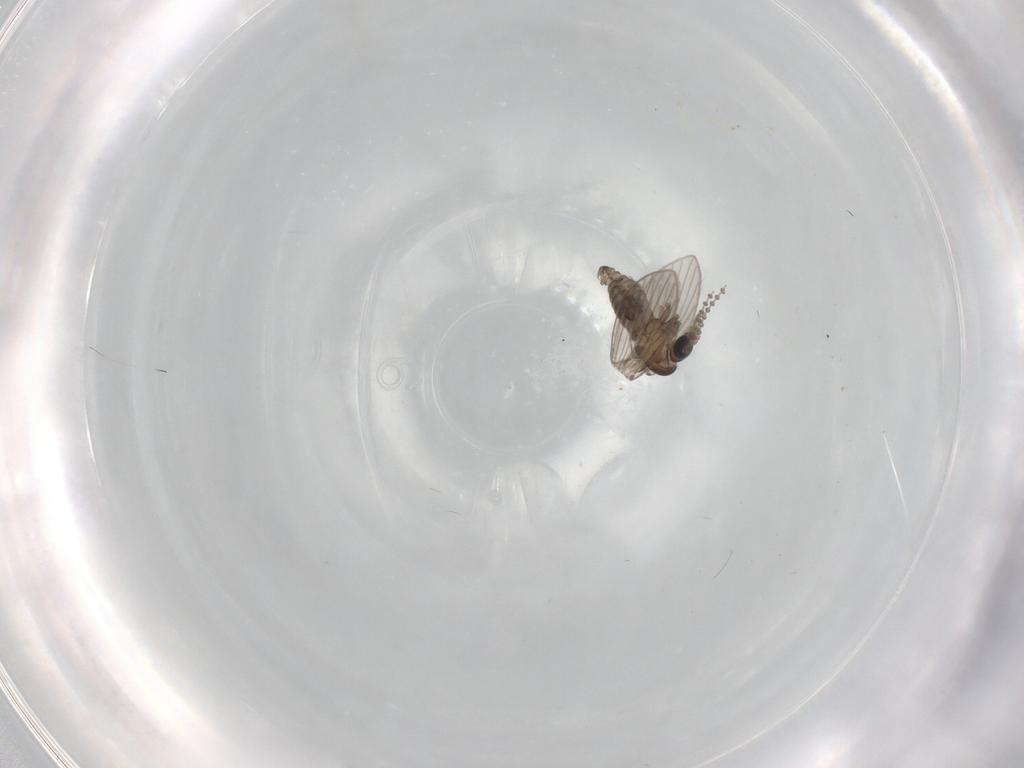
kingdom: Animalia
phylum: Arthropoda
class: Insecta
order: Diptera
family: Psychodidae
